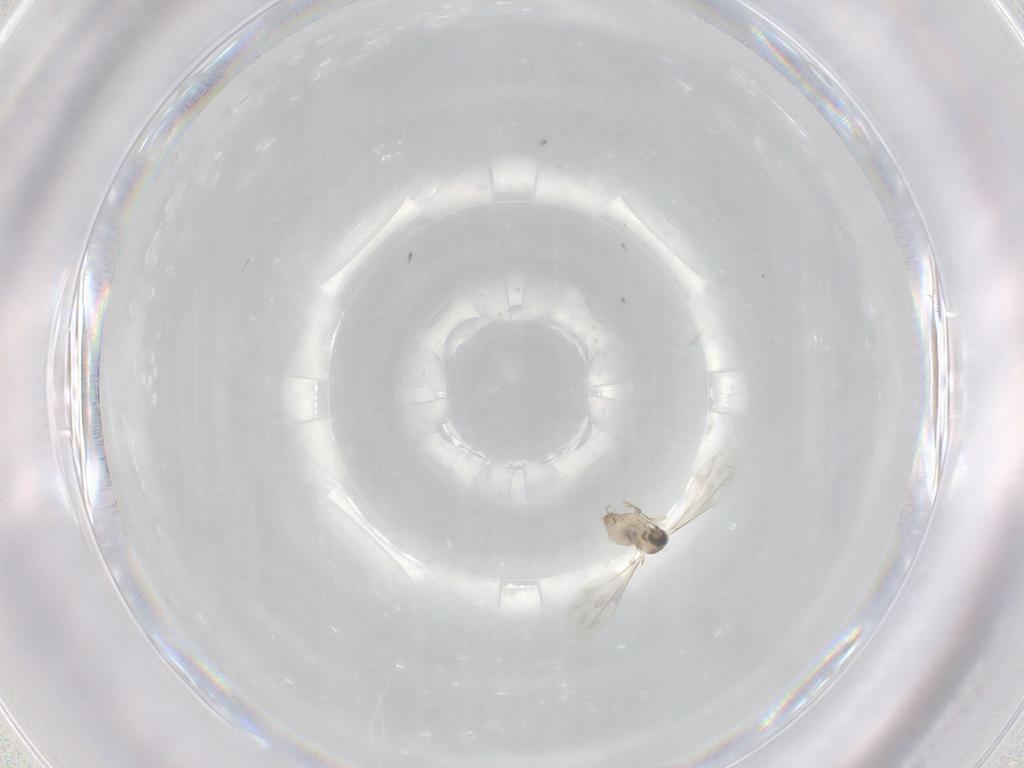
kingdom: Animalia
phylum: Arthropoda
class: Insecta
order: Diptera
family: Cecidomyiidae
